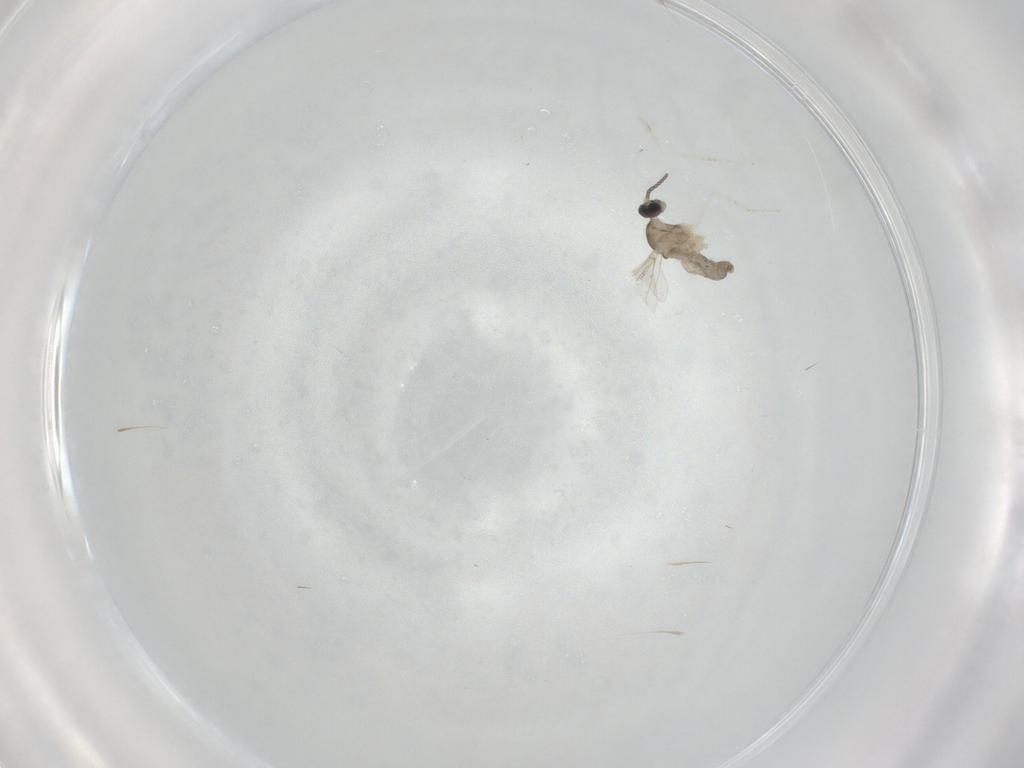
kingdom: Animalia
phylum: Arthropoda
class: Insecta
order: Diptera
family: Cecidomyiidae
